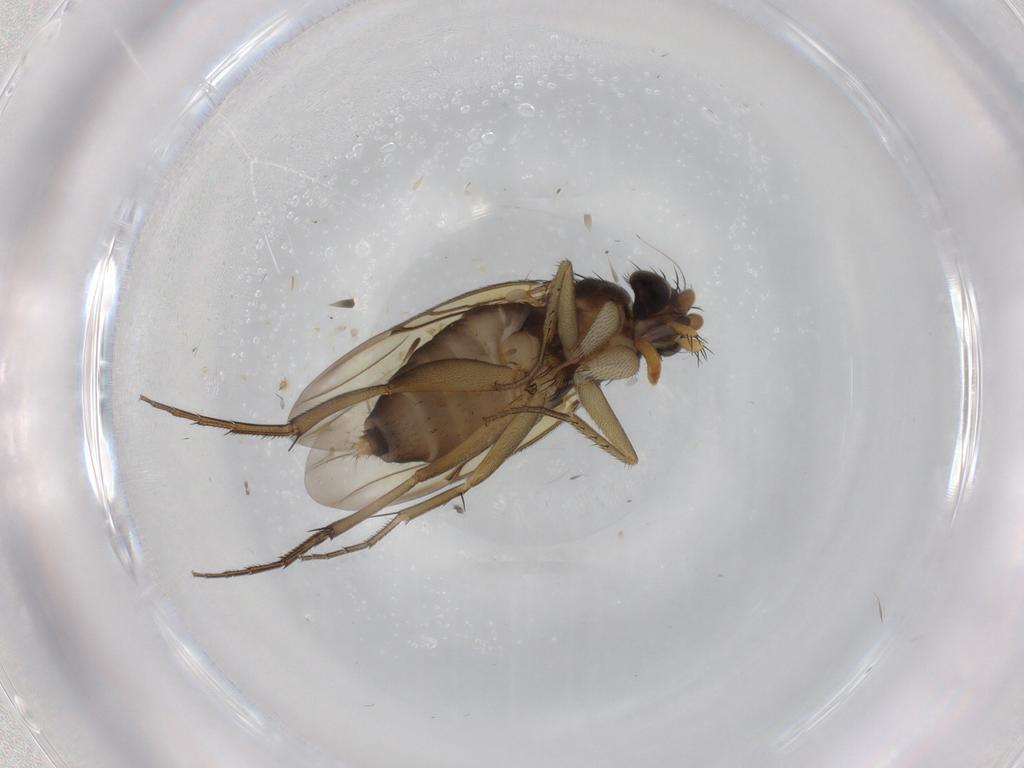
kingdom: Animalia
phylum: Arthropoda
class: Insecta
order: Diptera
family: Phoridae
